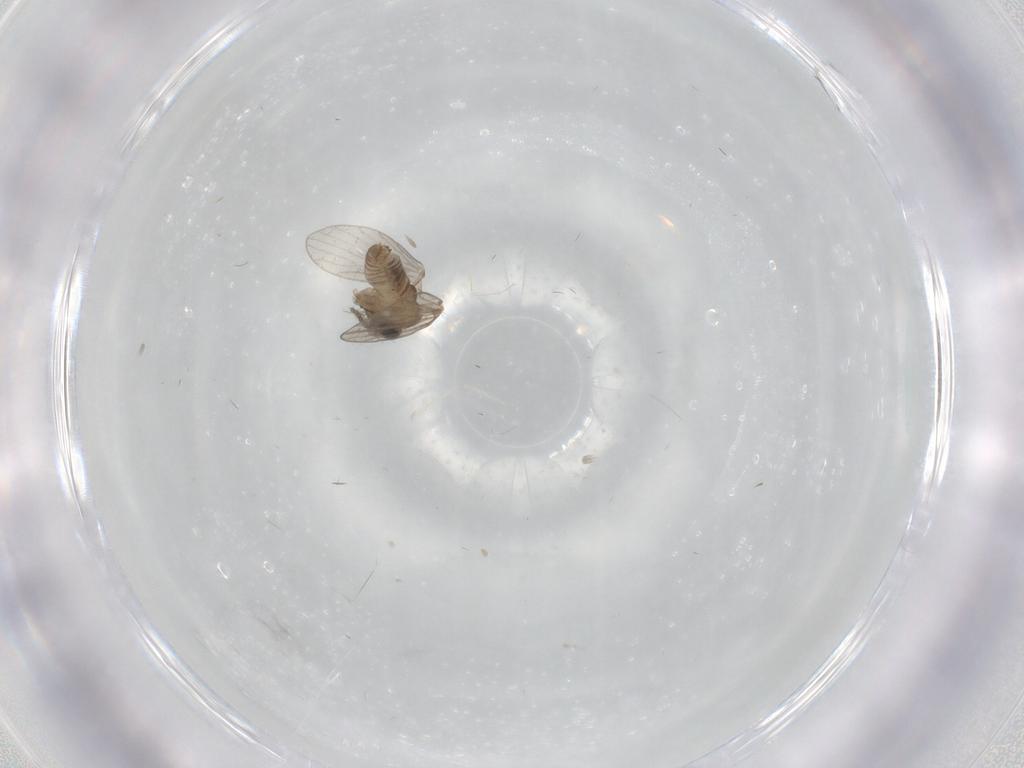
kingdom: Animalia
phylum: Arthropoda
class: Insecta
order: Diptera
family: Cecidomyiidae
